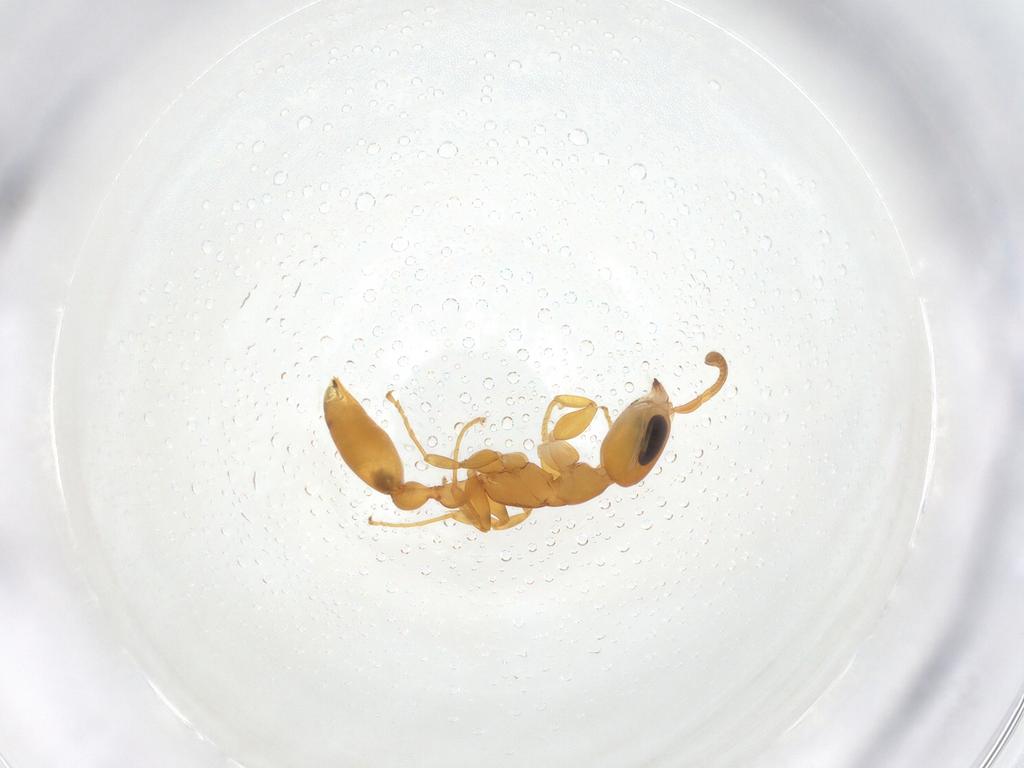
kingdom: Animalia
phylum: Arthropoda
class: Insecta
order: Hymenoptera
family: Formicidae
